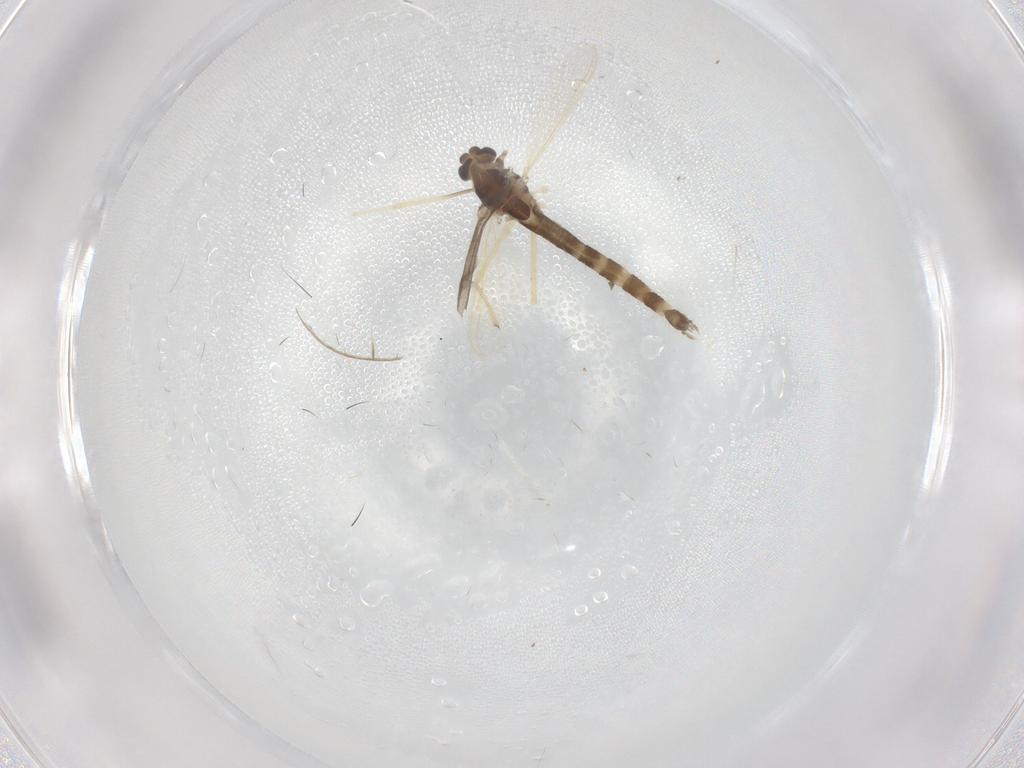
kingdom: Animalia
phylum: Arthropoda
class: Insecta
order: Diptera
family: Chironomidae
